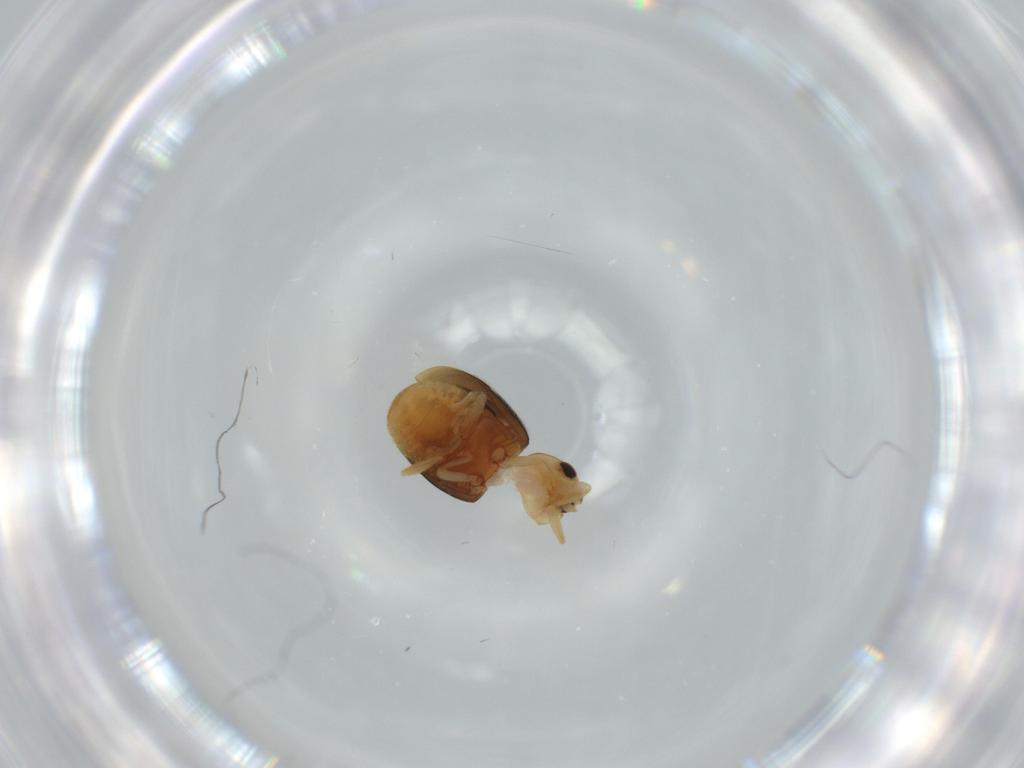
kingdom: Animalia
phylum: Arthropoda
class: Insecta
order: Coleoptera
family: Coccinellidae
